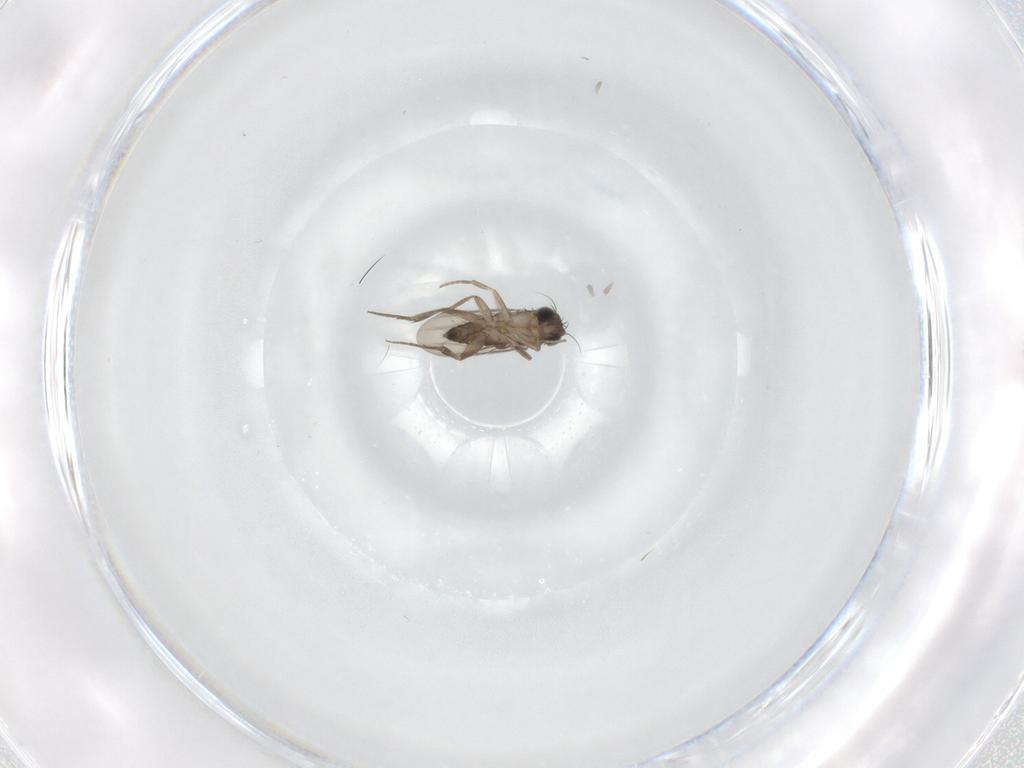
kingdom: Animalia
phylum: Arthropoda
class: Insecta
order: Diptera
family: Phoridae
